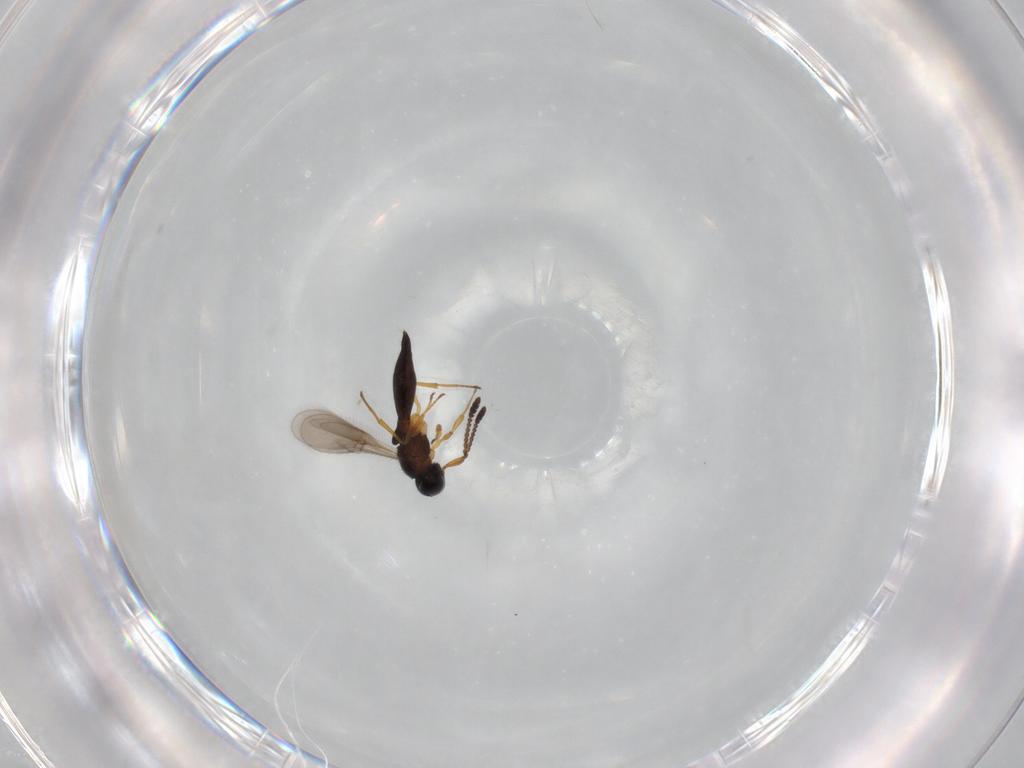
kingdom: Animalia
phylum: Arthropoda
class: Insecta
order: Hymenoptera
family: Scelionidae
